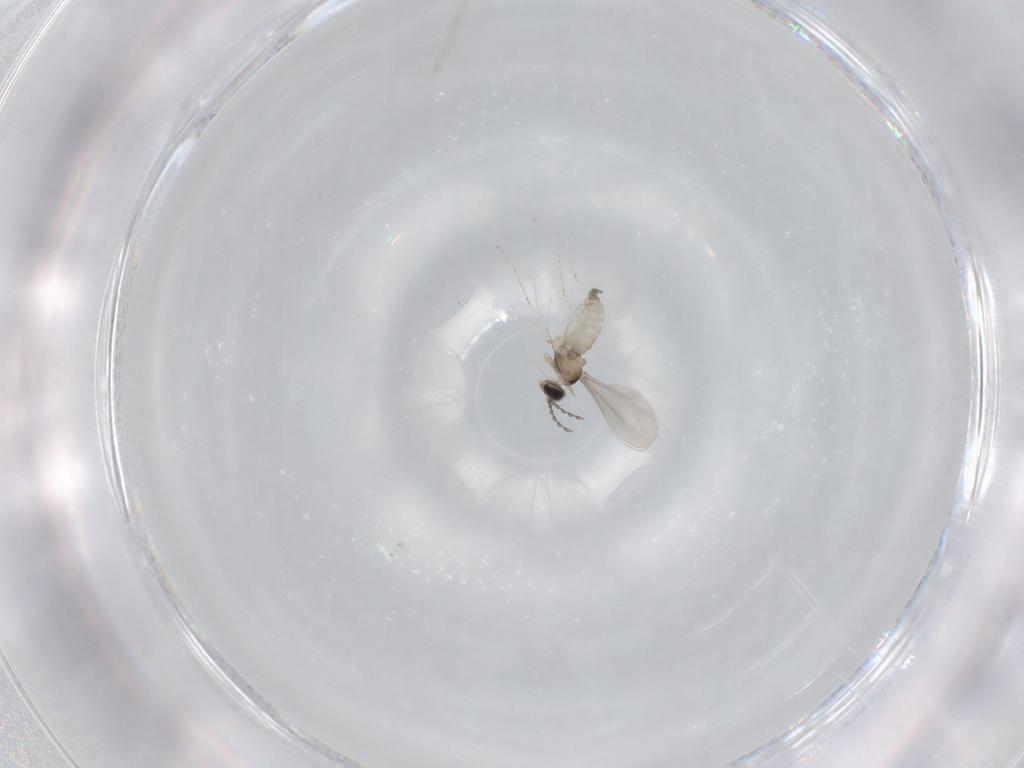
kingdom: Animalia
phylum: Arthropoda
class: Insecta
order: Diptera
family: Cecidomyiidae
